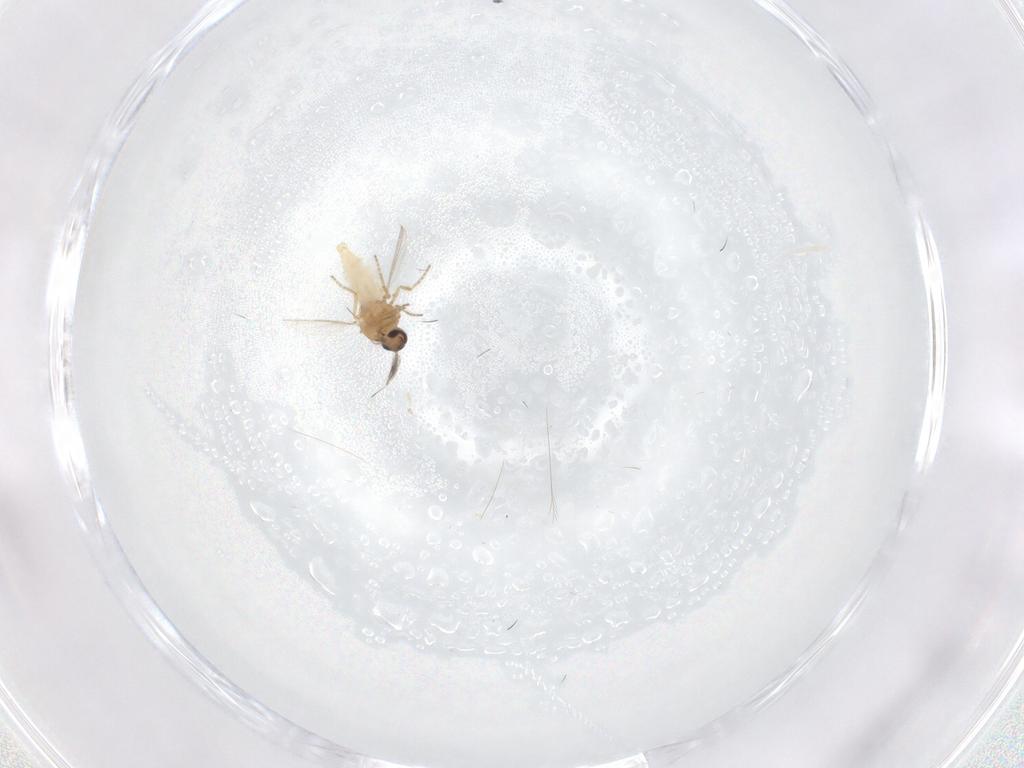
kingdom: Animalia
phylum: Arthropoda
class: Insecta
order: Diptera
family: Ceratopogonidae
